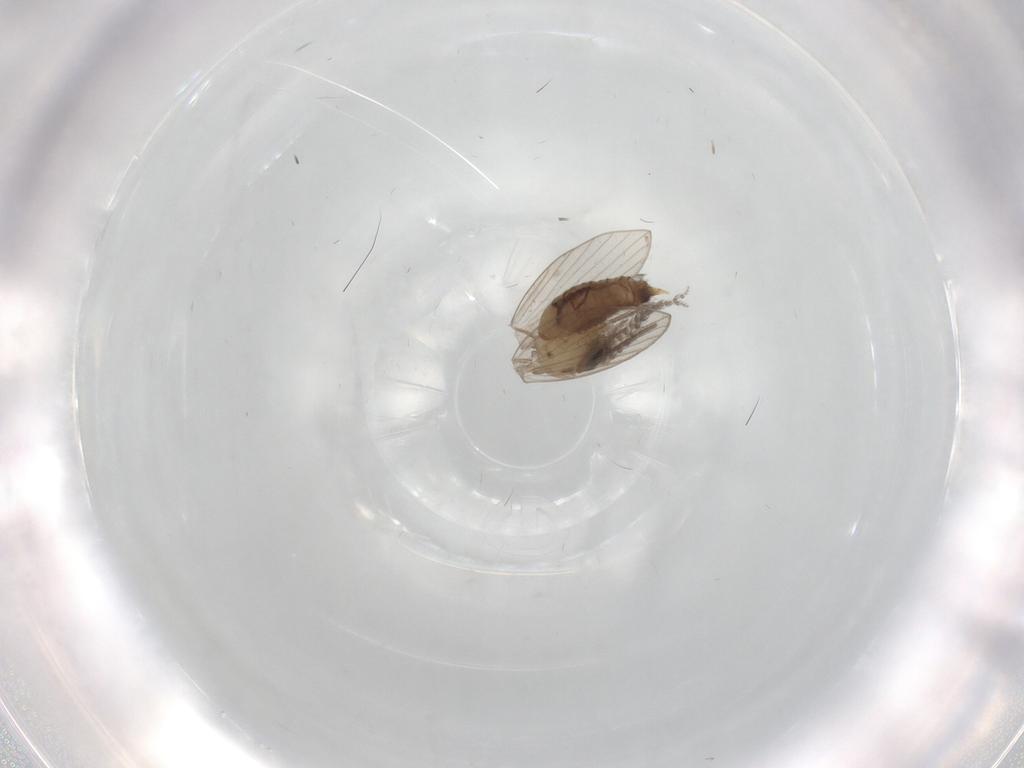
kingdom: Animalia
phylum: Arthropoda
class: Insecta
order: Diptera
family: Psychodidae
